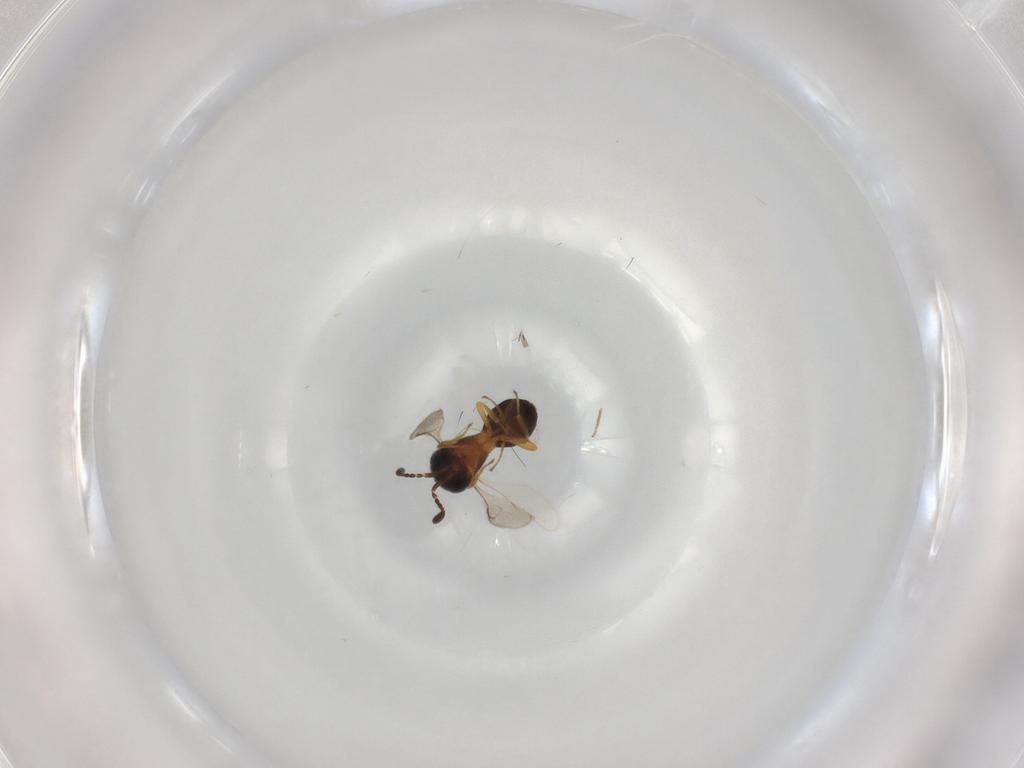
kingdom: Animalia
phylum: Arthropoda
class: Insecta
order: Hymenoptera
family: Scelionidae
